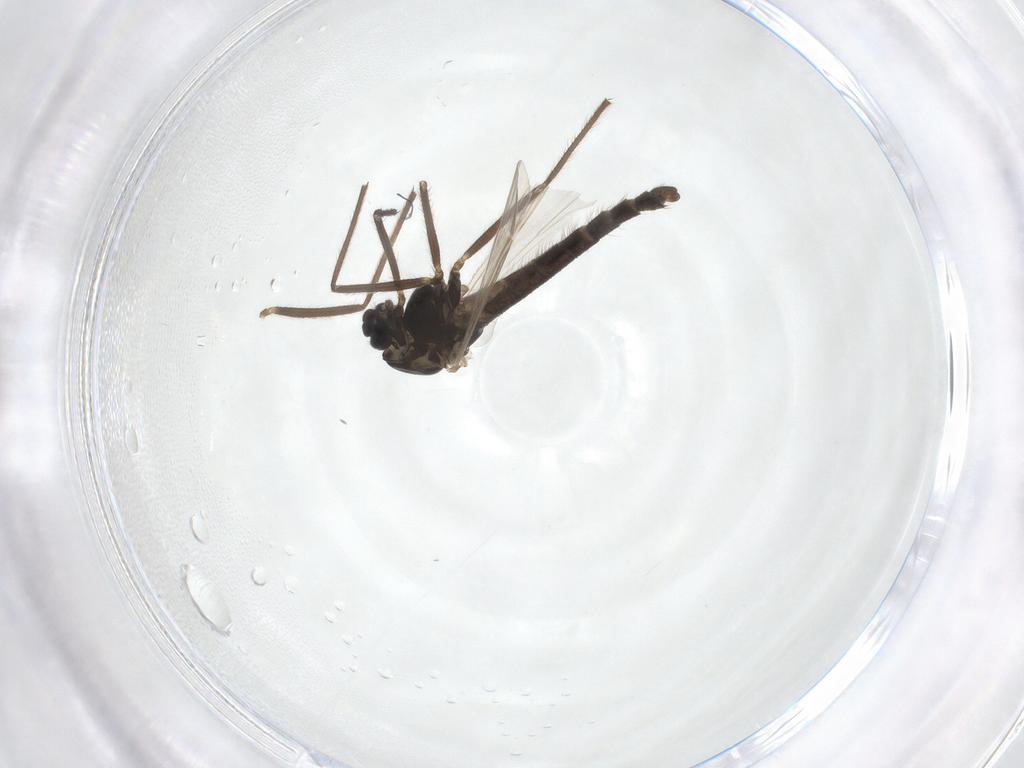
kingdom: Animalia
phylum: Arthropoda
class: Insecta
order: Diptera
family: Chironomidae
